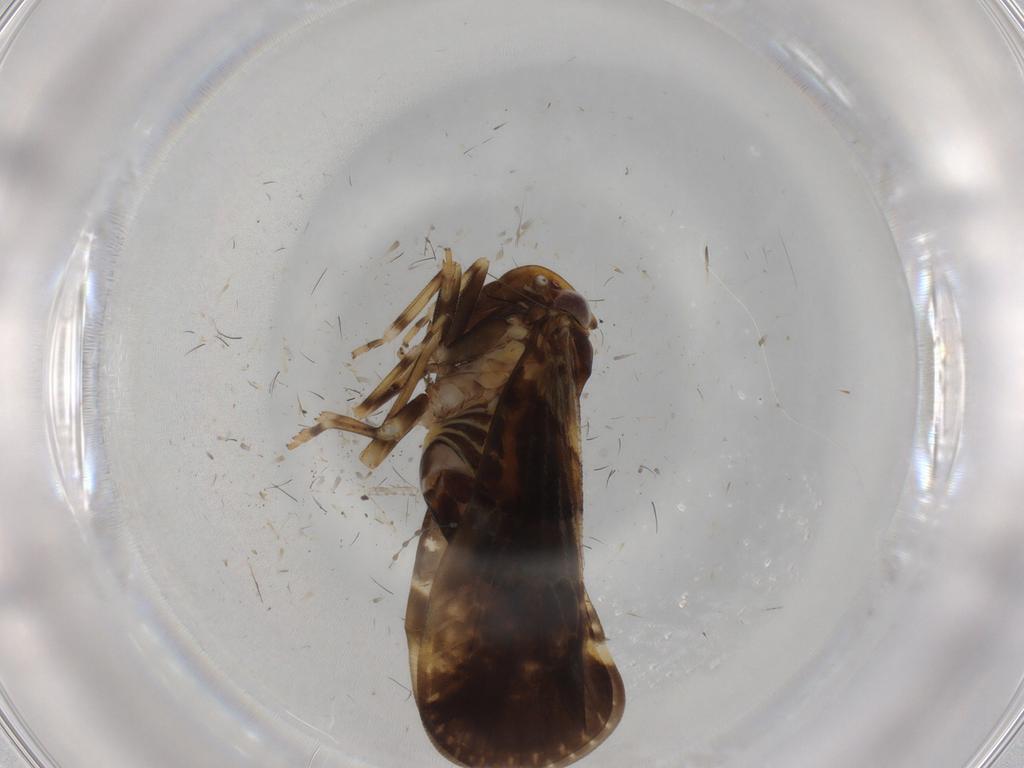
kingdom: Animalia
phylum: Arthropoda
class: Insecta
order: Hemiptera
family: Cixiidae
